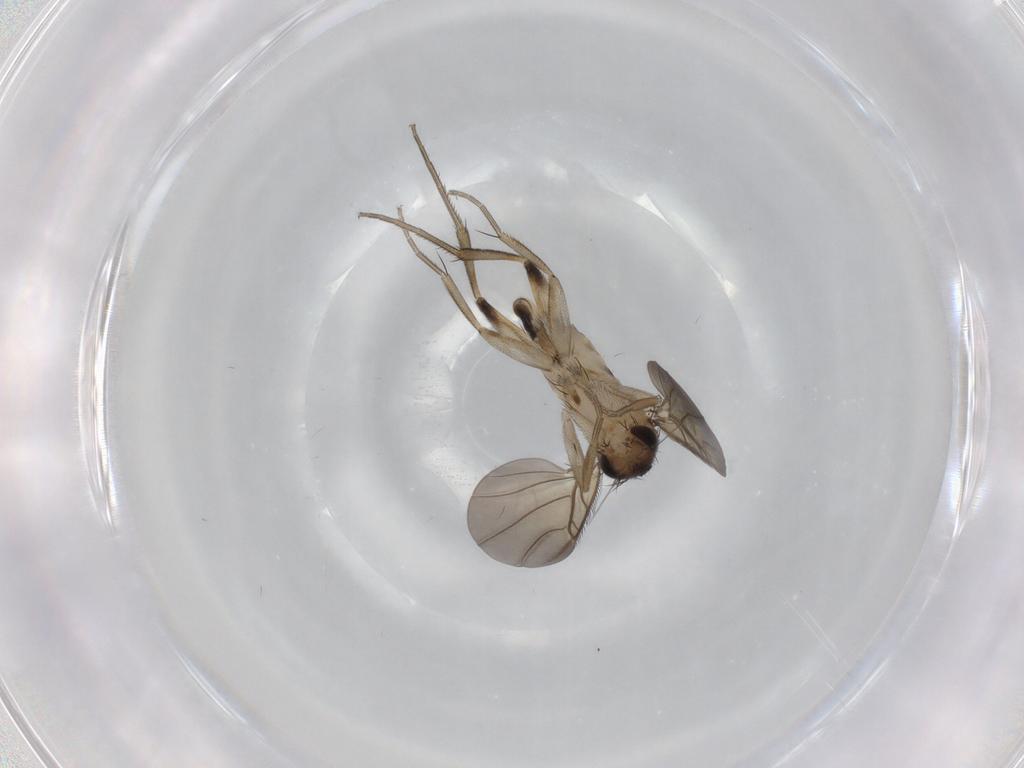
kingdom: Animalia
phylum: Arthropoda
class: Insecta
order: Diptera
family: Phoridae
